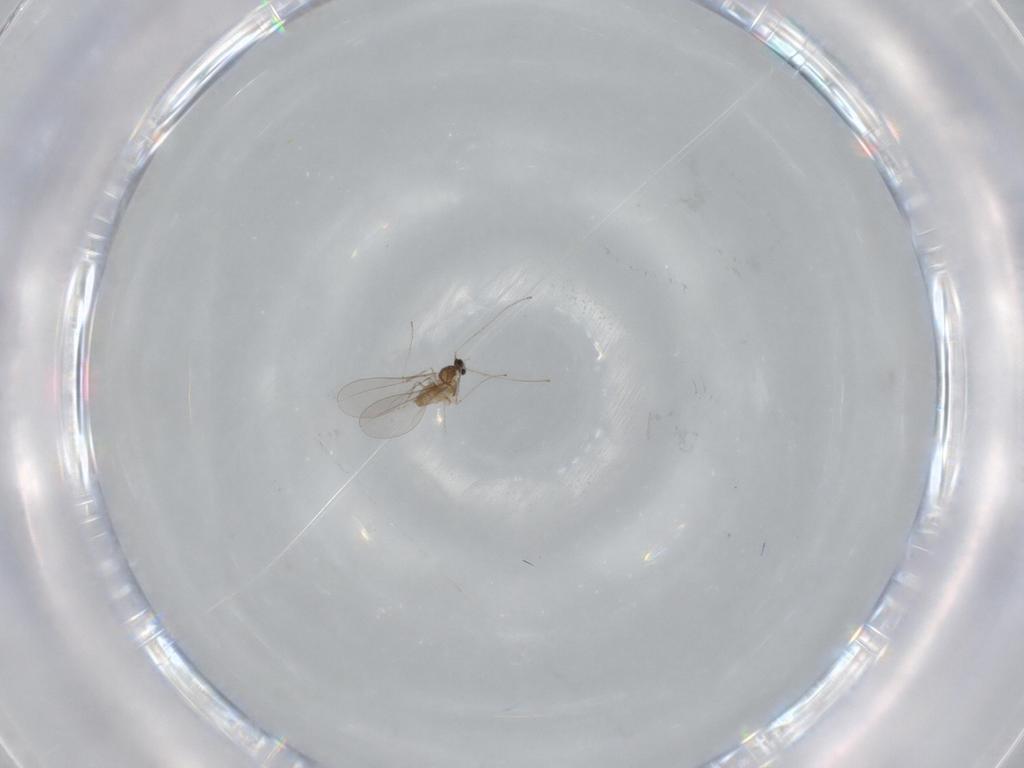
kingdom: Animalia
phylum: Arthropoda
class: Insecta
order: Diptera
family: Cecidomyiidae
